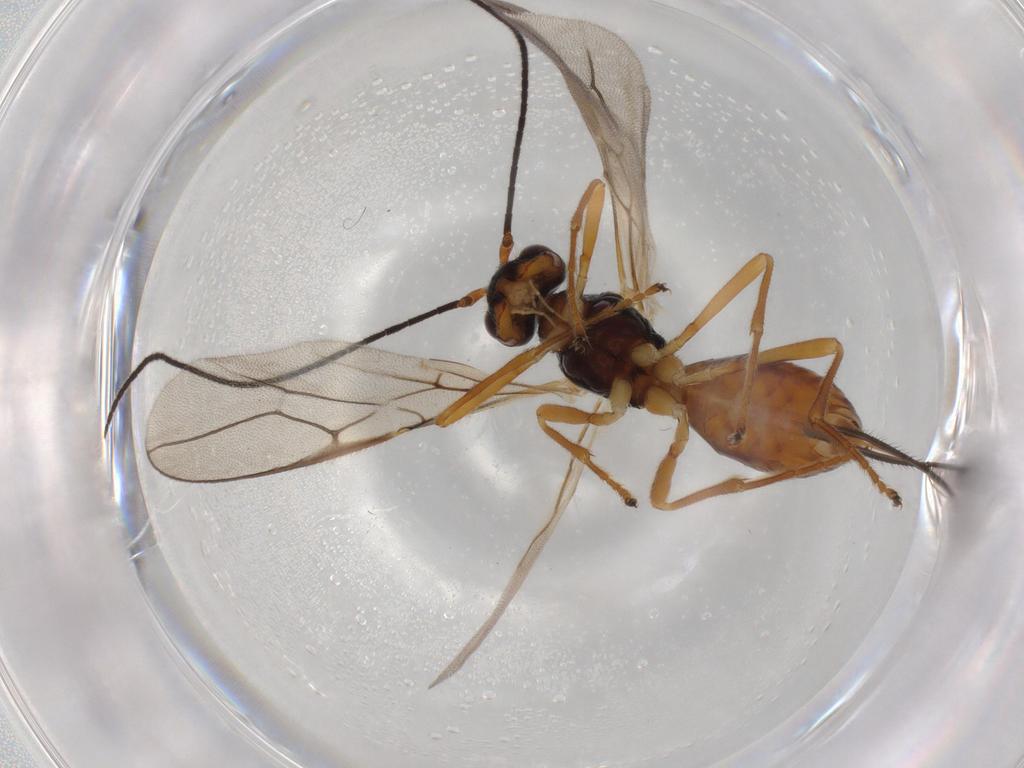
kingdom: Animalia
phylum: Arthropoda
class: Insecta
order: Hymenoptera
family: Braconidae
